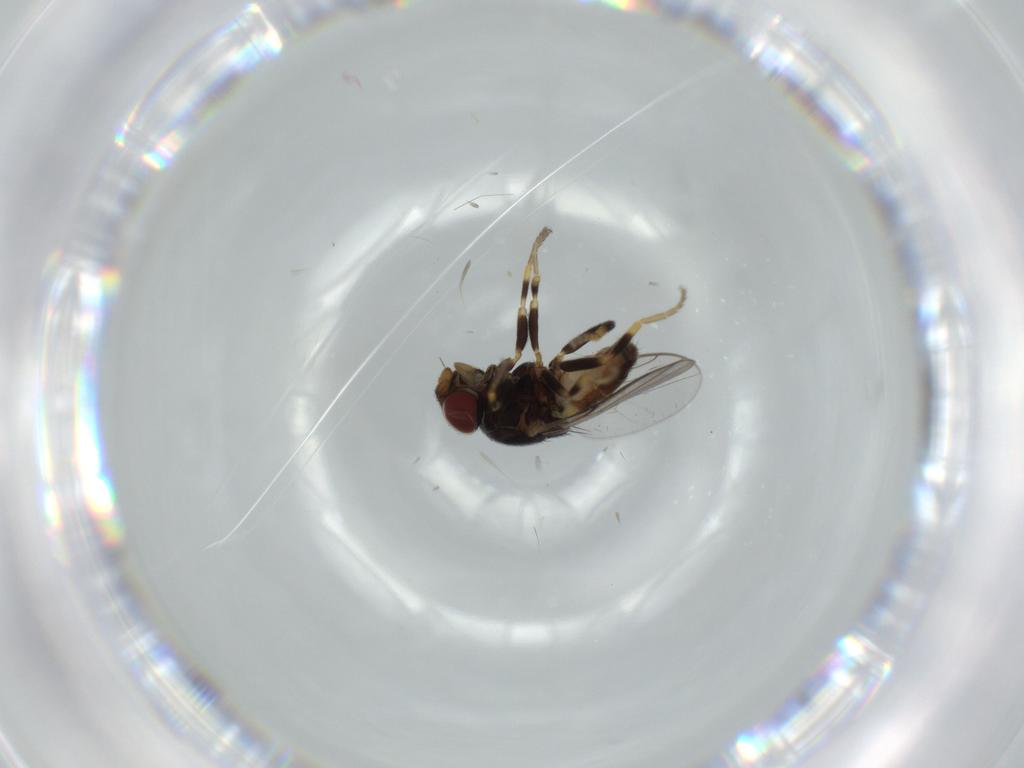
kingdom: Animalia
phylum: Arthropoda
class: Insecta
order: Diptera
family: Chloropidae
